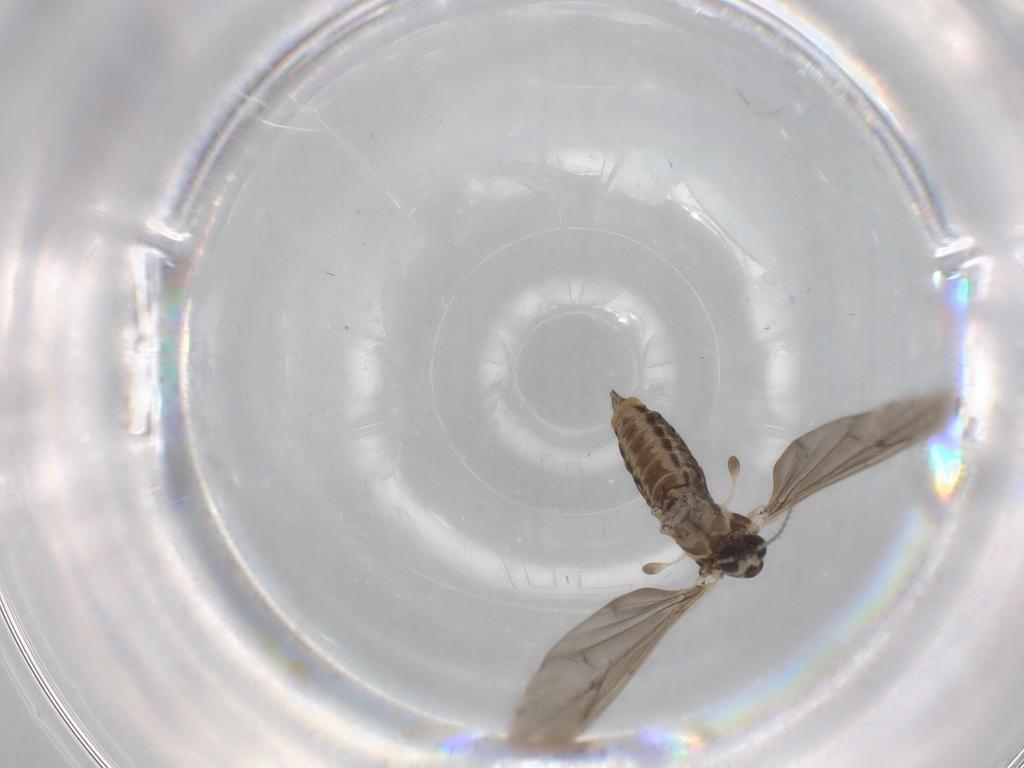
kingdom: Animalia
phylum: Arthropoda
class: Insecta
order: Diptera
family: Limoniidae
